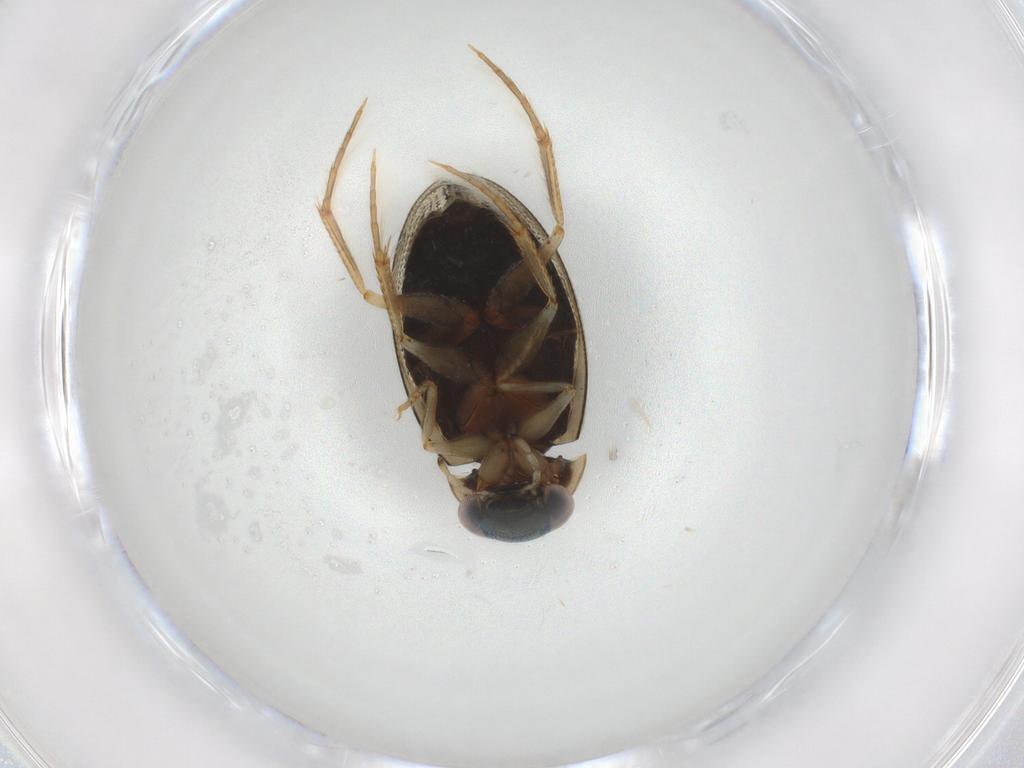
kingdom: Animalia
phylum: Arthropoda
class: Insecta
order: Coleoptera
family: Hydrophilidae
